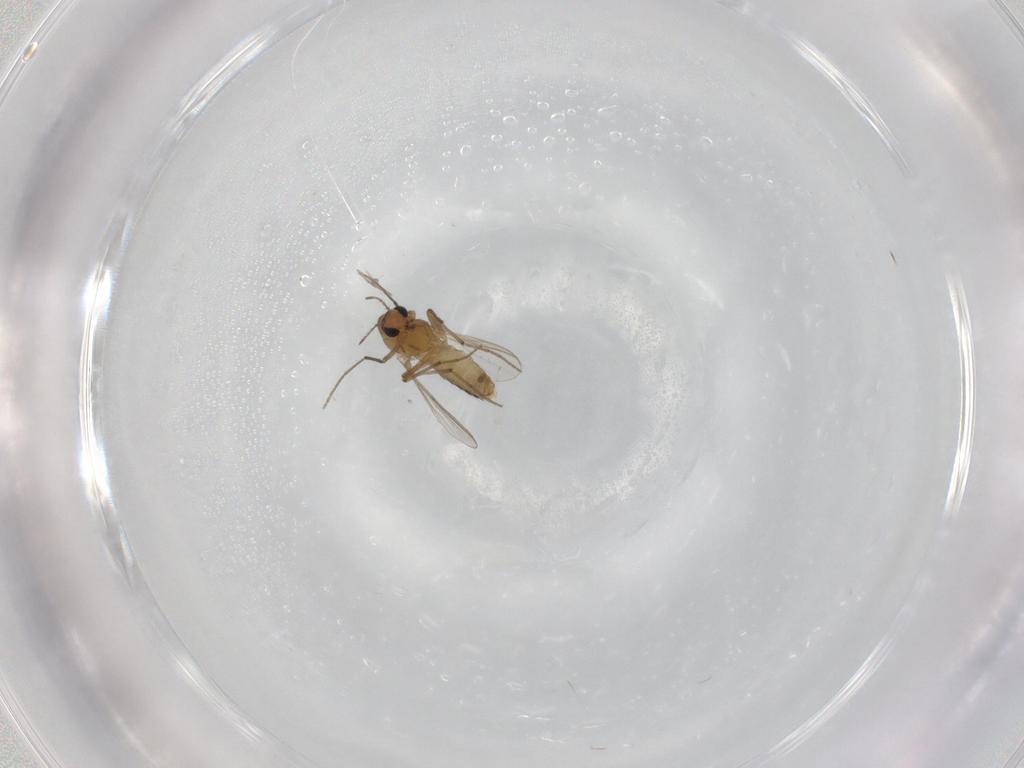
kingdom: Animalia
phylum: Arthropoda
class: Insecta
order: Diptera
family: Chironomidae
